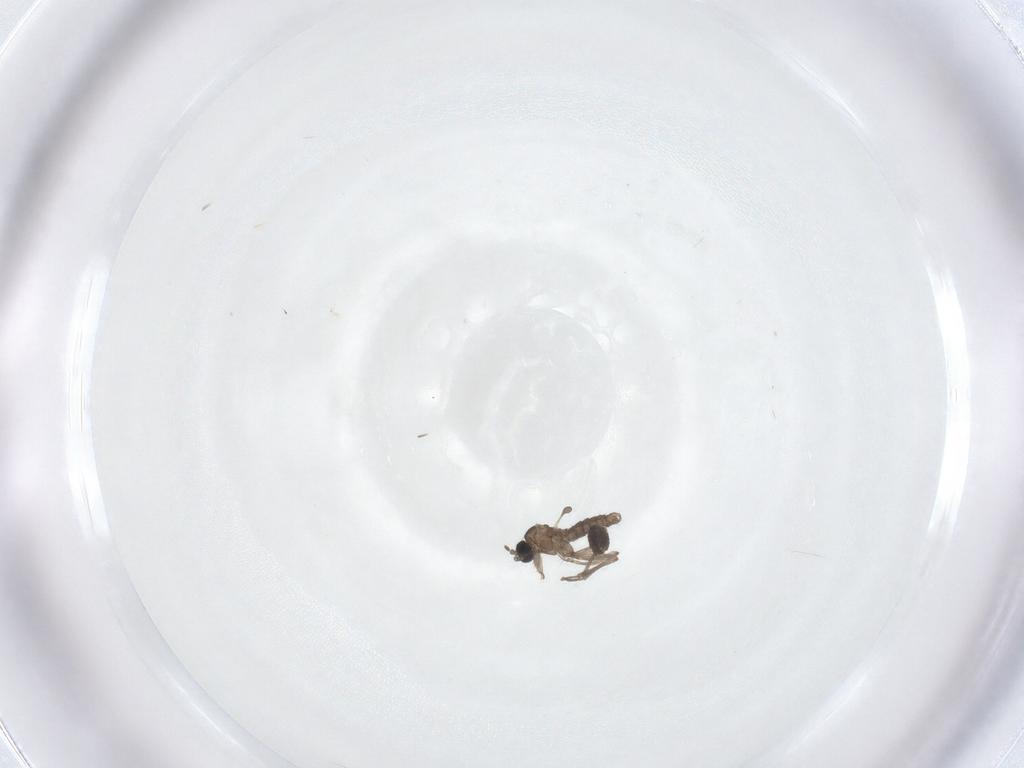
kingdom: Animalia
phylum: Arthropoda
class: Insecta
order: Diptera
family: Sciaridae
